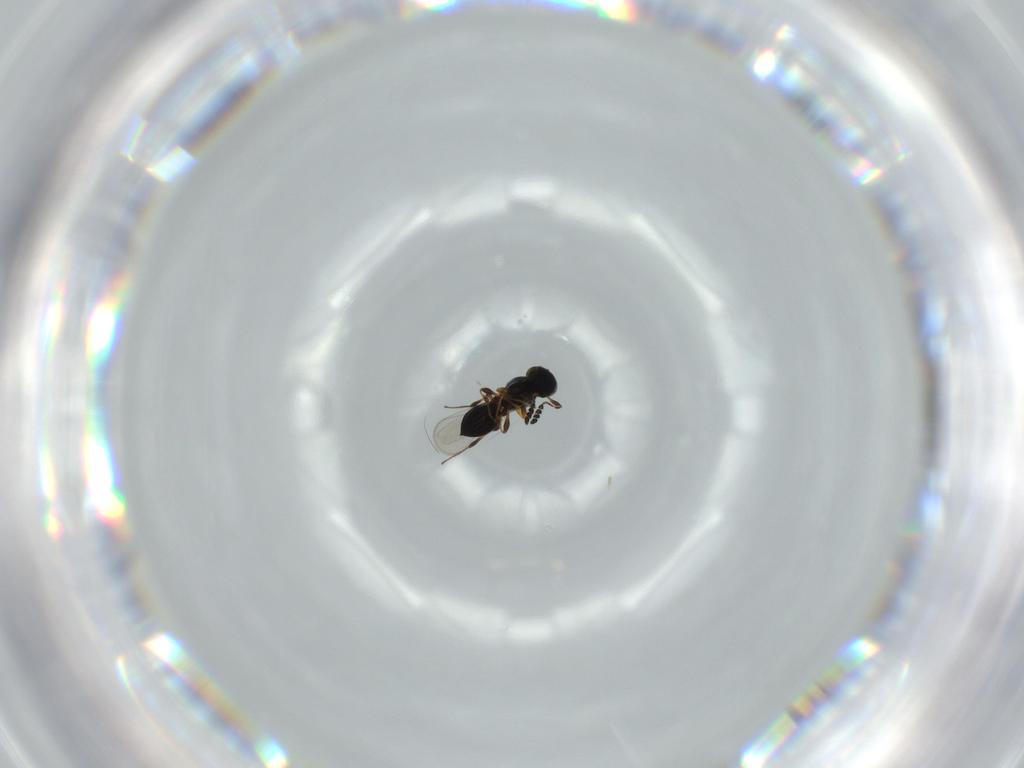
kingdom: Animalia
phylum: Arthropoda
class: Insecta
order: Hymenoptera
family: Platygastridae
